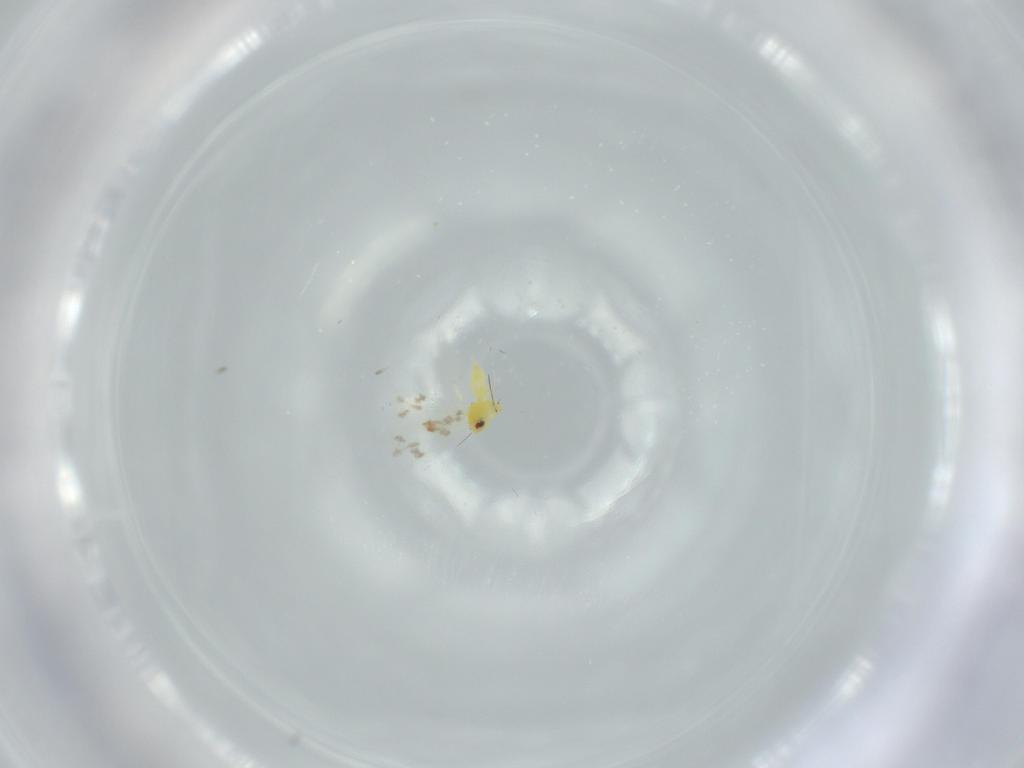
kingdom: Animalia
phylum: Arthropoda
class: Insecta
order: Hemiptera
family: Aleyrodidae
